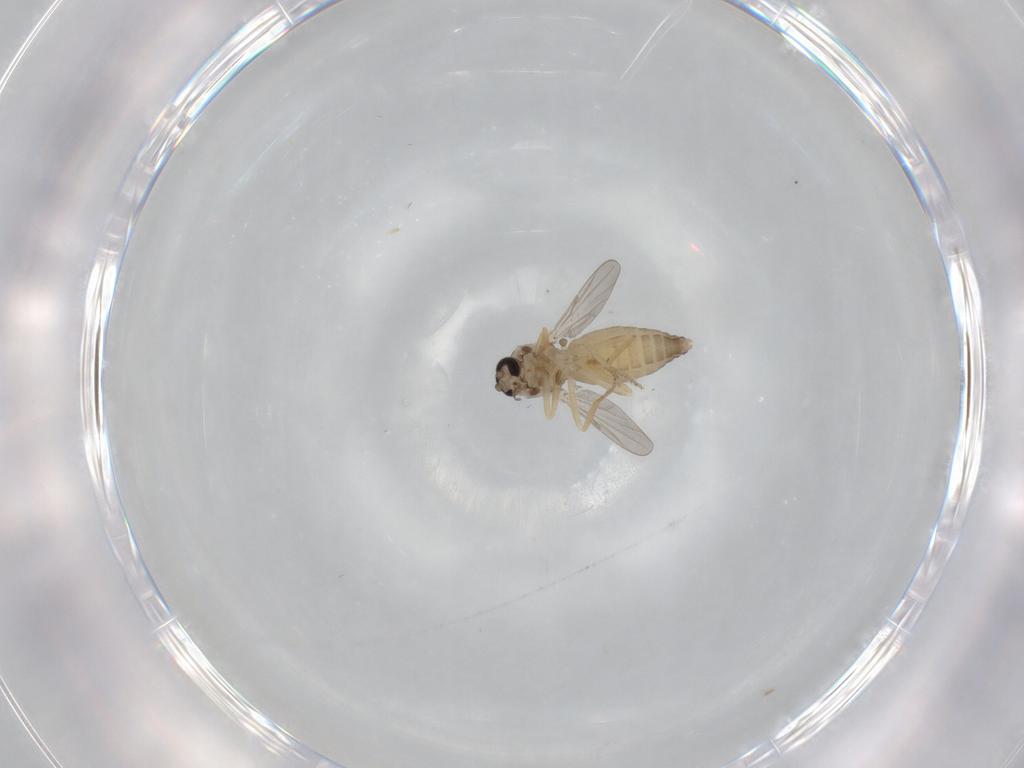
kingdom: Animalia
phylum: Arthropoda
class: Insecta
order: Diptera
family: Ceratopogonidae
